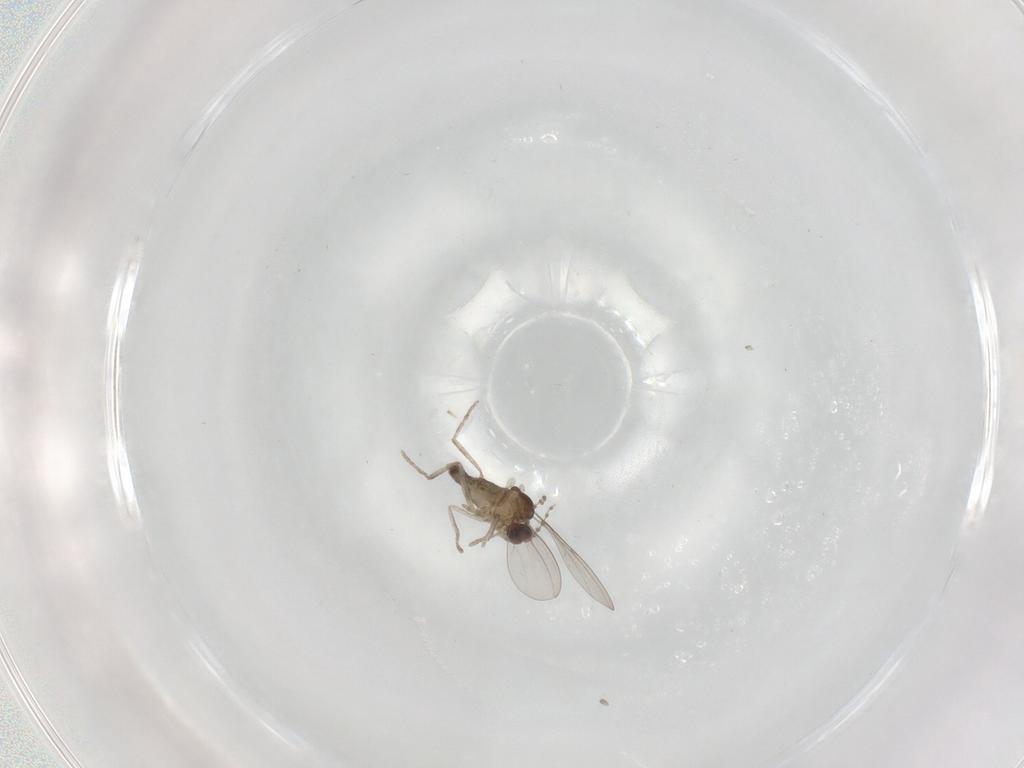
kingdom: Animalia
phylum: Arthropoda
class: Insecta
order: Diptera
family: Cecidomyiidae
